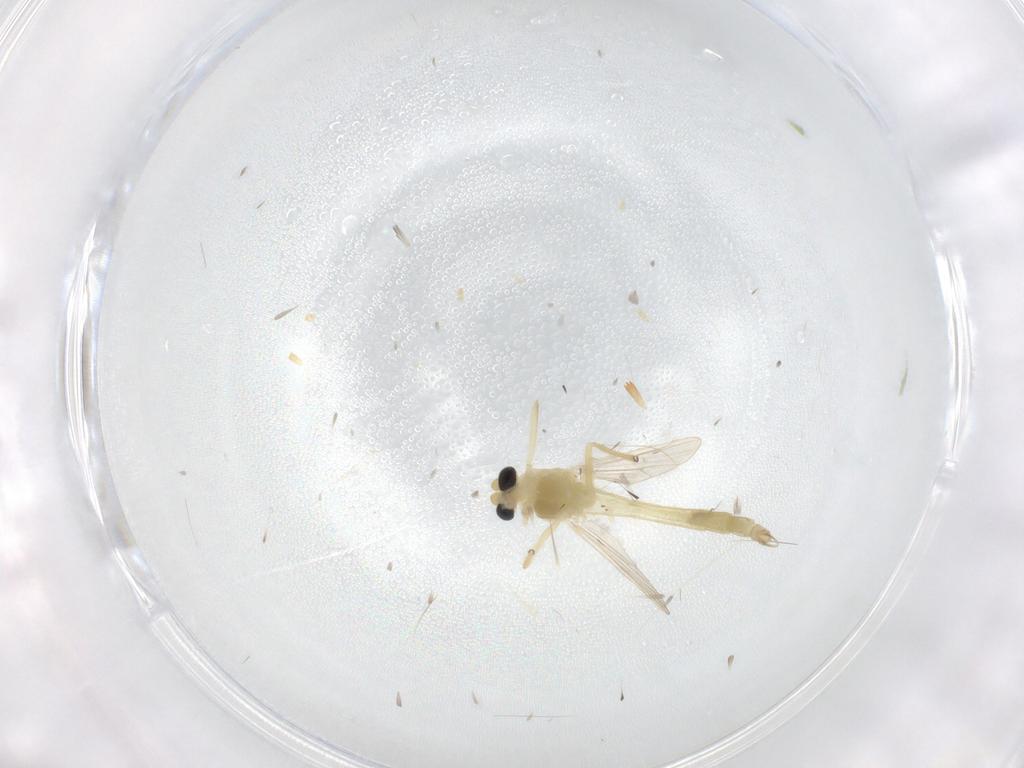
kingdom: Animalia
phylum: Arthropoda
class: Insecta
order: Diptera
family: Chironomidae
